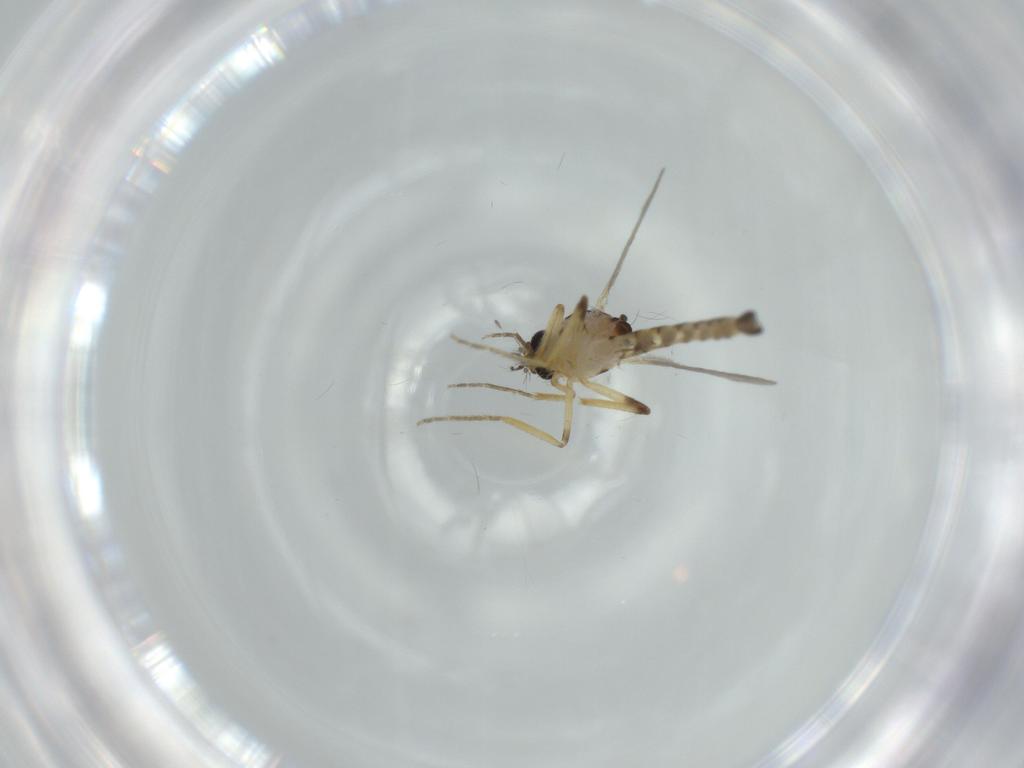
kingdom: Animalia
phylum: Arthropoda
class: Insecta
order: Diptera
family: Ceratopogonidae
